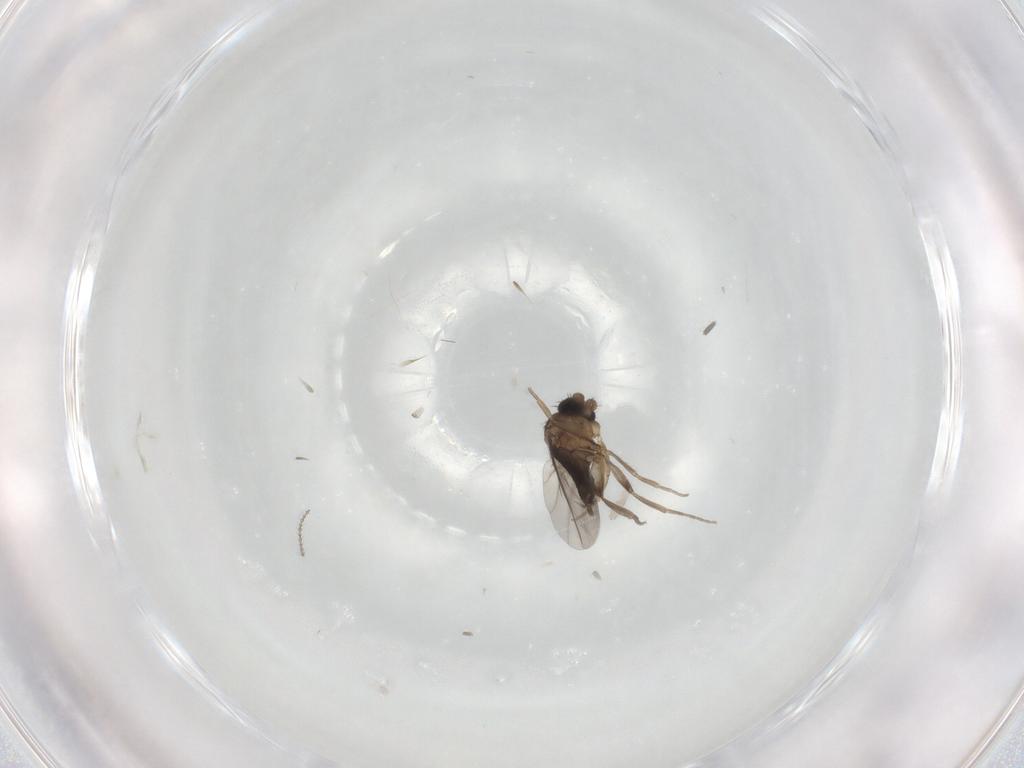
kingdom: Animalia
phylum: Arthropoda
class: Insecta
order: Diptera
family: Phoridae
